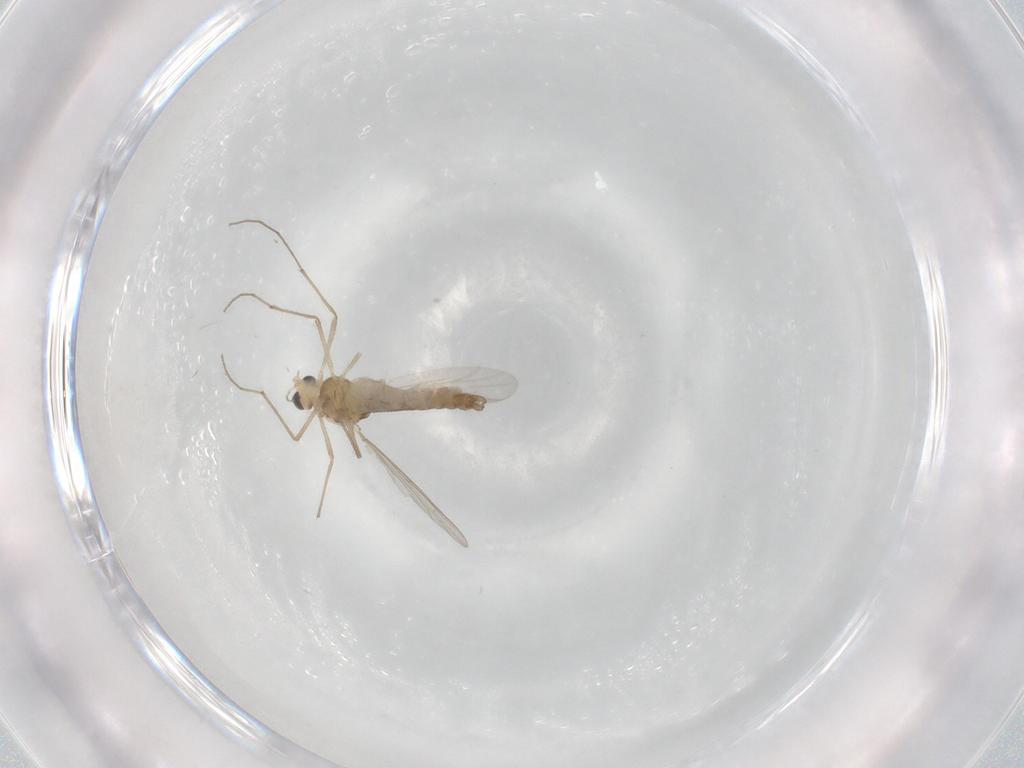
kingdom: Animalia
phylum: Arthropoda
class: Insecta
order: Diptera
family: Chironomidae
